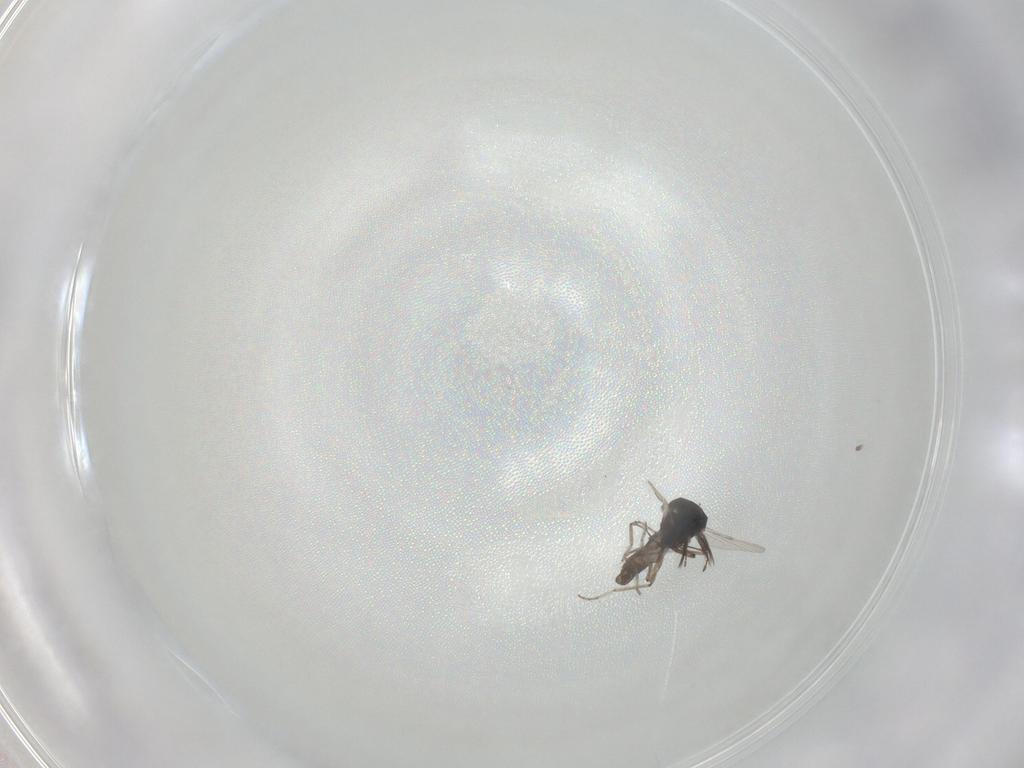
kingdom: Animalia
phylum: Arthropoda
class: Insecta
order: Diptera
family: Ceratopogonidae
